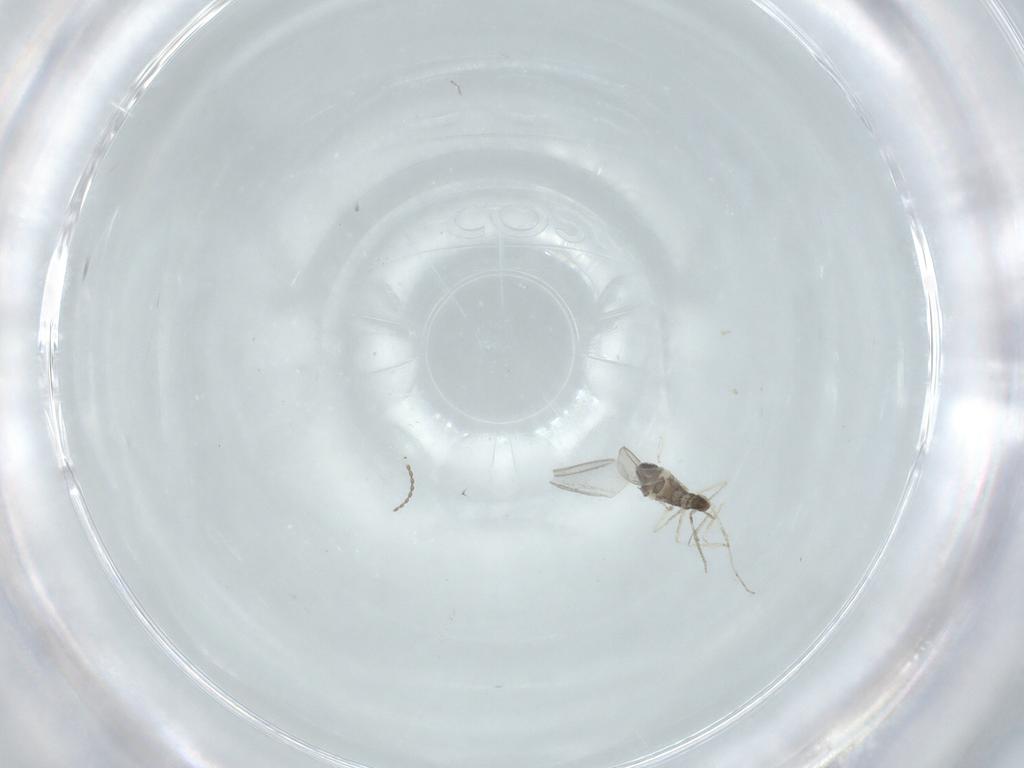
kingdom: Animalia
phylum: Arthropoda
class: Insecta
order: Diptera
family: Cecidomyiidae
